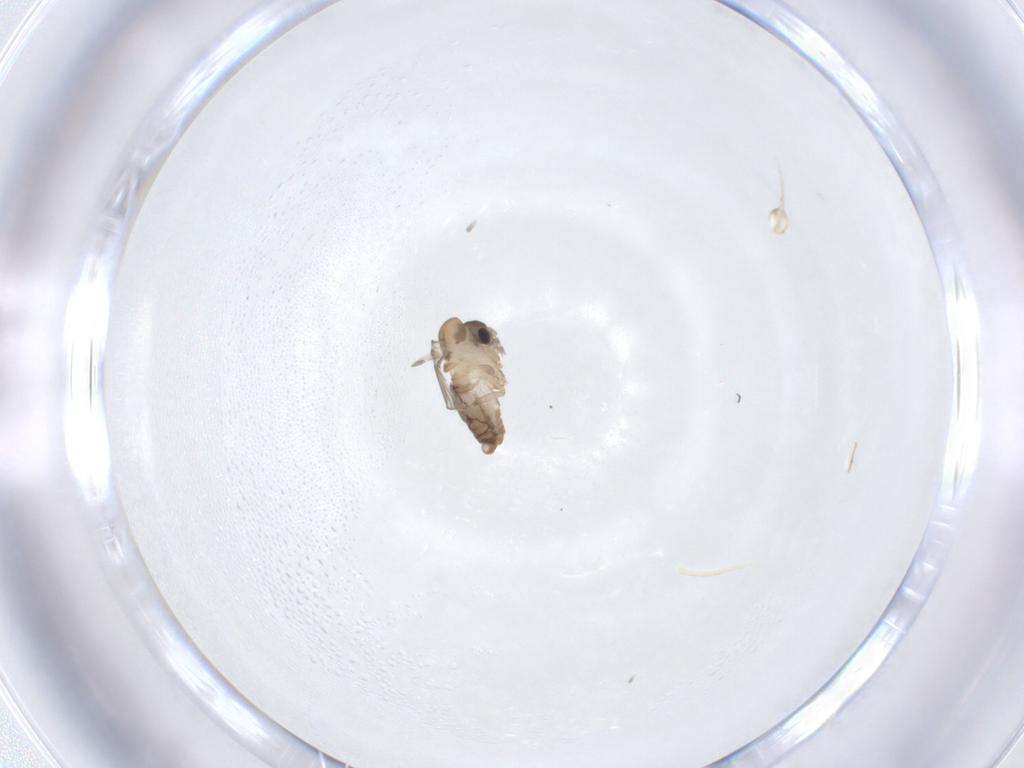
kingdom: Animalia
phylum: Arthropoda
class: Insecta
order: Diptera
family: Psychodidae
